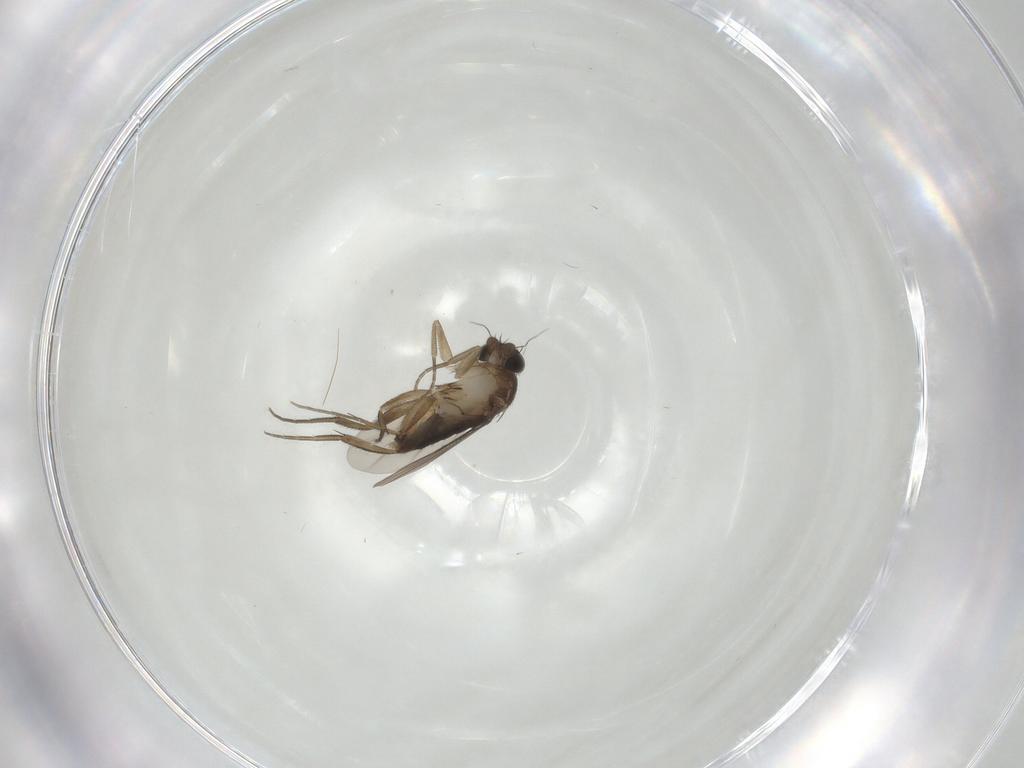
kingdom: Animalia
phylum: Arthropoda
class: Insecta
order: Diptera
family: Phoridae
